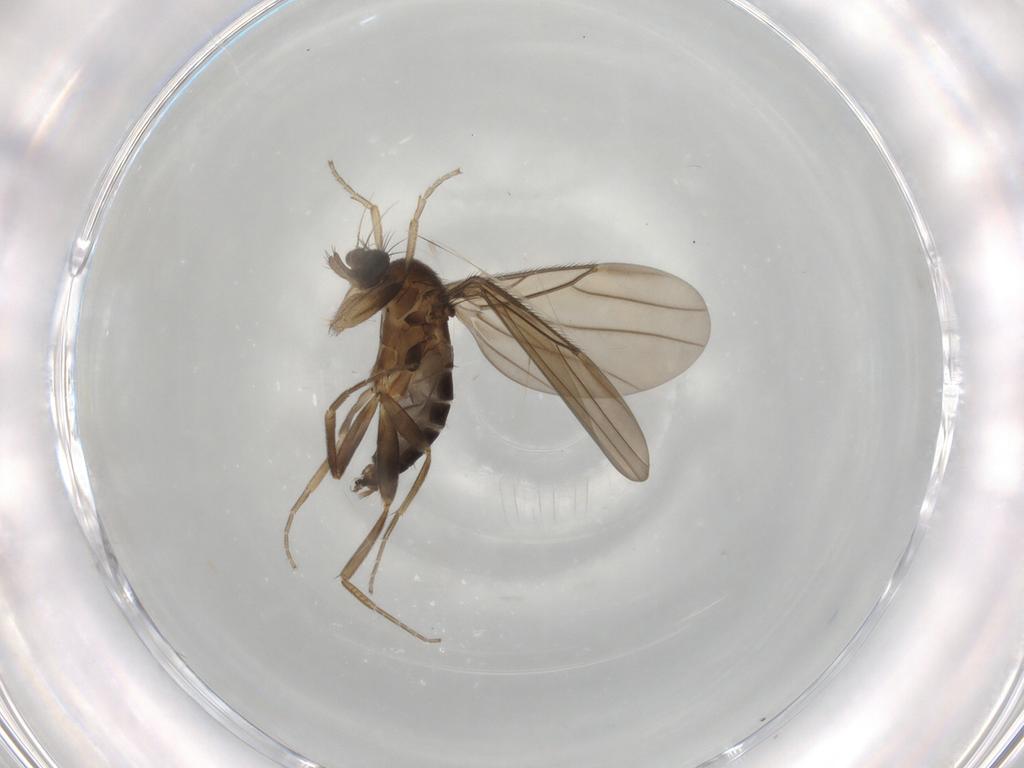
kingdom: Animalia
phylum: Arthropoda
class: Insecta
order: Diptera
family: Phoridae
